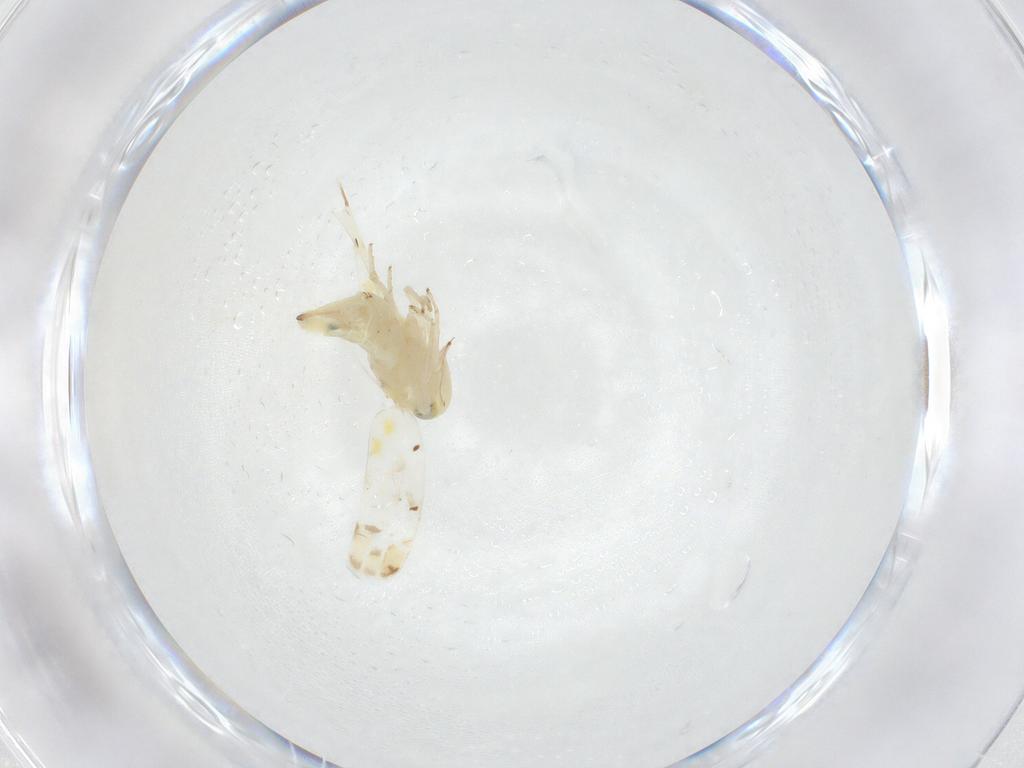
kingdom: Animalia
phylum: Arthropoda
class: Insecta
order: Hemiptera
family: Cicadellidae
